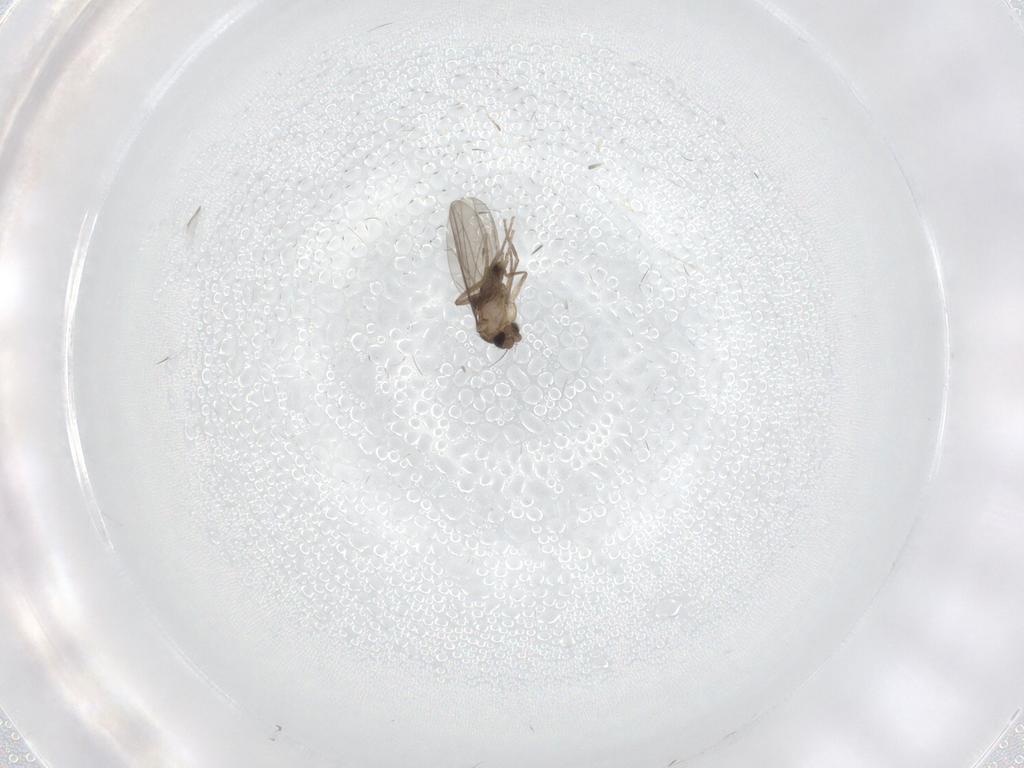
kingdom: Animalia
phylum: Arthropoda
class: Insecta
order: Diptera
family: Phoridae
